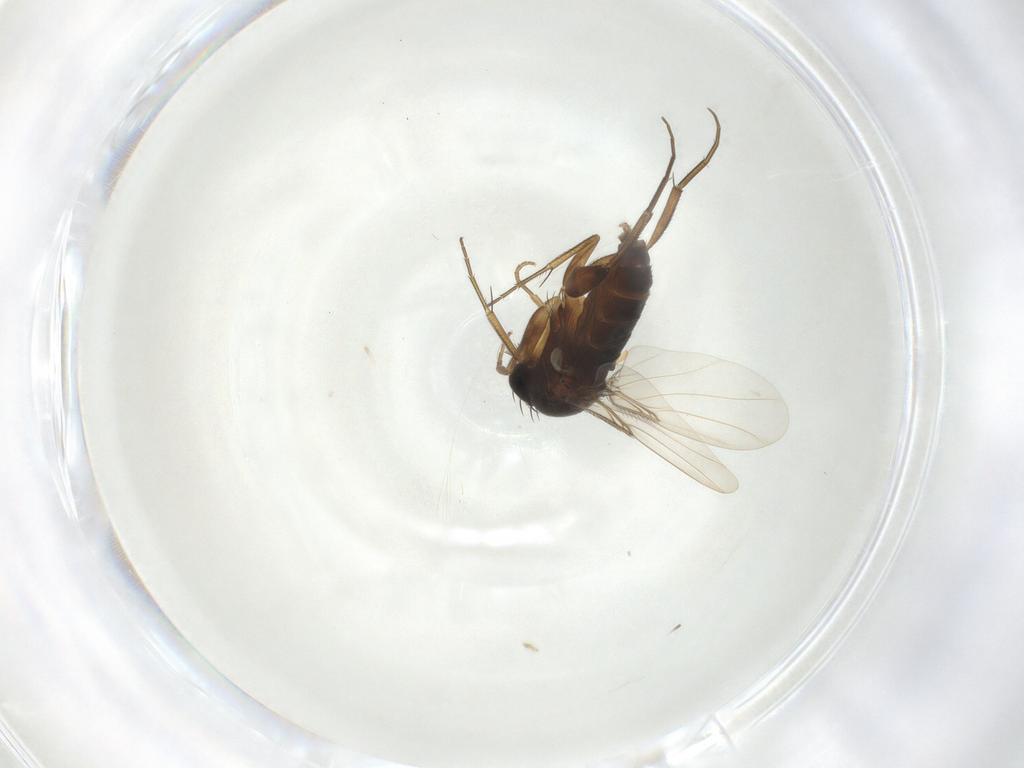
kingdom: Animalia
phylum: Arthropoda
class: Insecta
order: Diptera
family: Phoridae
